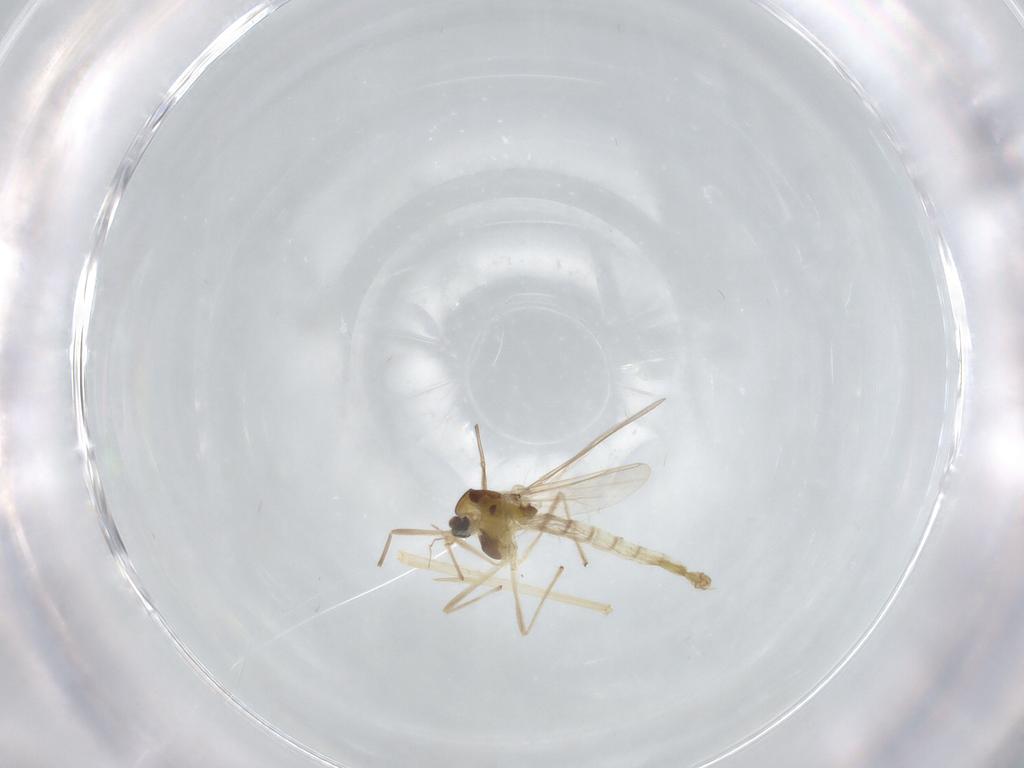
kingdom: Animalia
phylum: Arthropoda
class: Insecta
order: Diptera
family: Chironomidae
